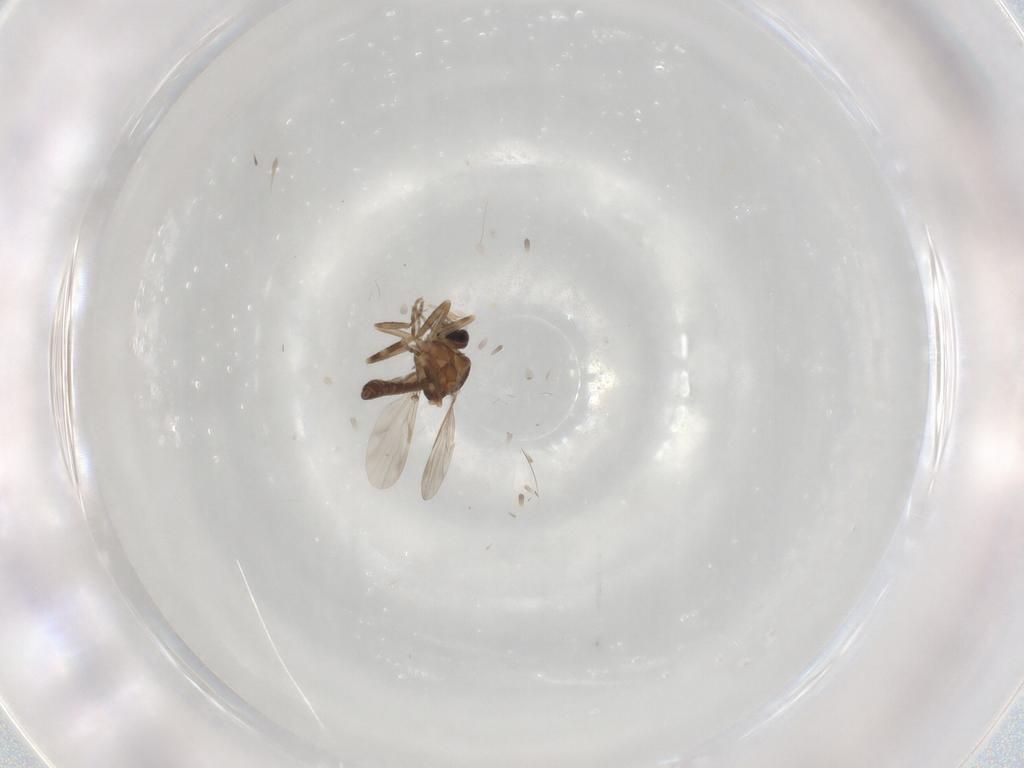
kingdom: Animalia
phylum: Arthropoda
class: Insecta
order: Diptera
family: Ceratopogonidae
